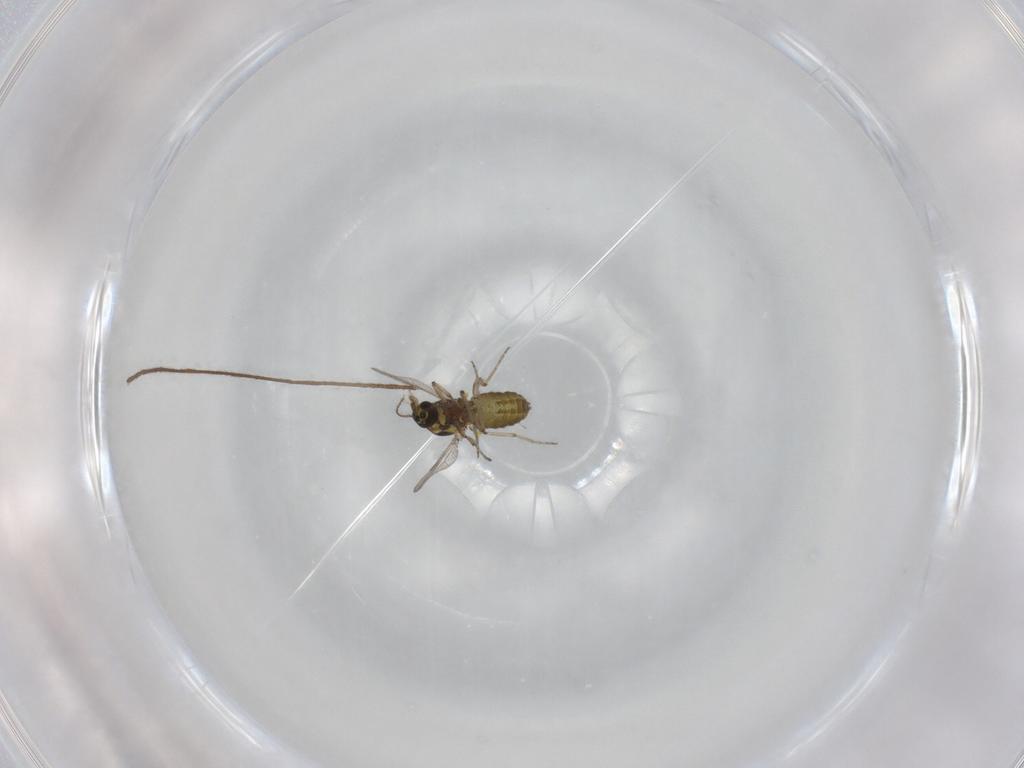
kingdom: Animalia
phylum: Arthropoda
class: Insecta
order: Diptera
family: Ceratopogonidae
